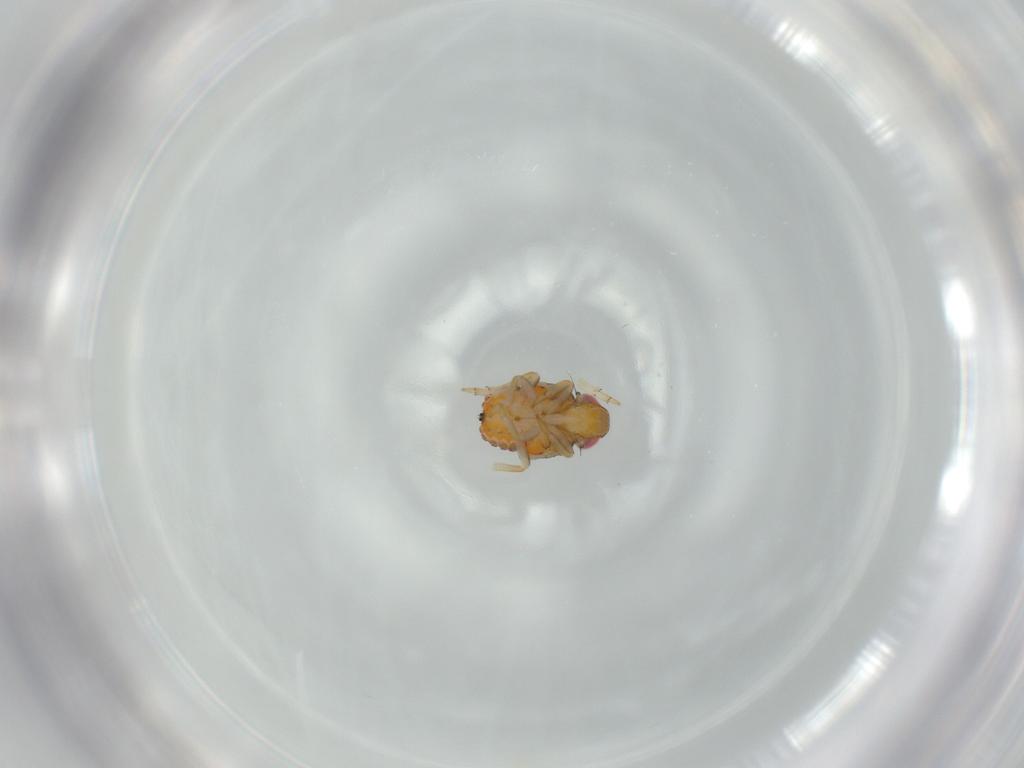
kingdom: Animalia
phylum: Arthropoda
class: Insecta
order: Hemiptera
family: Issidae
